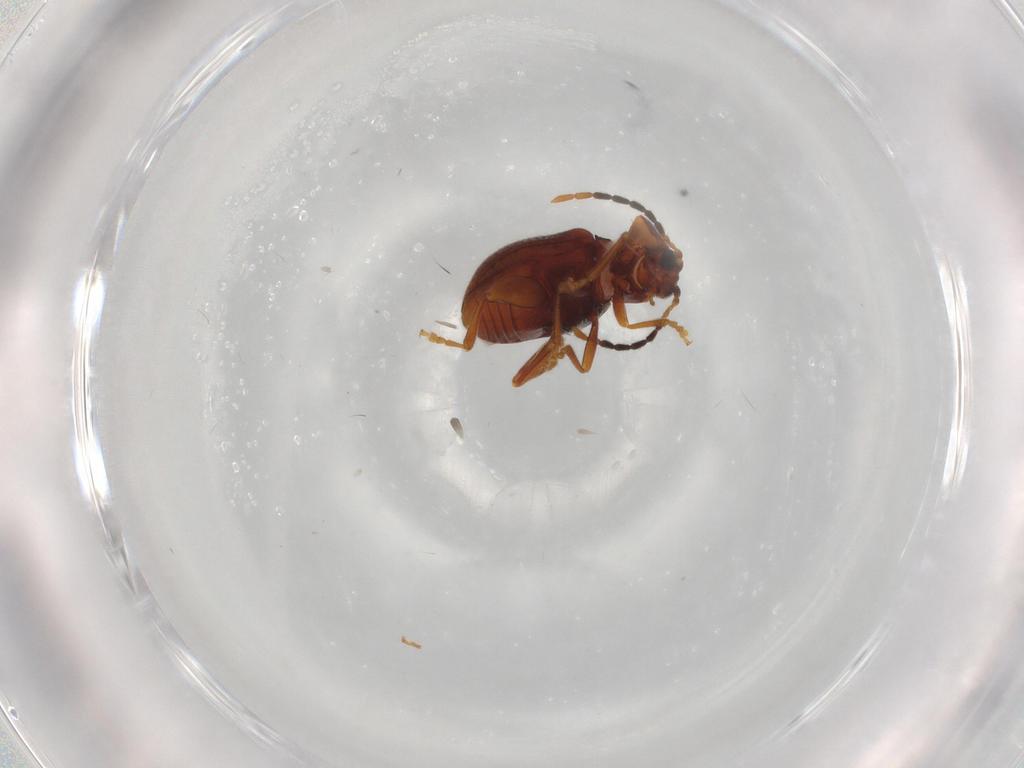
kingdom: Animalia
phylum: Arthropoda
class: Insecta
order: Coleoptera
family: Chrysomelidae
